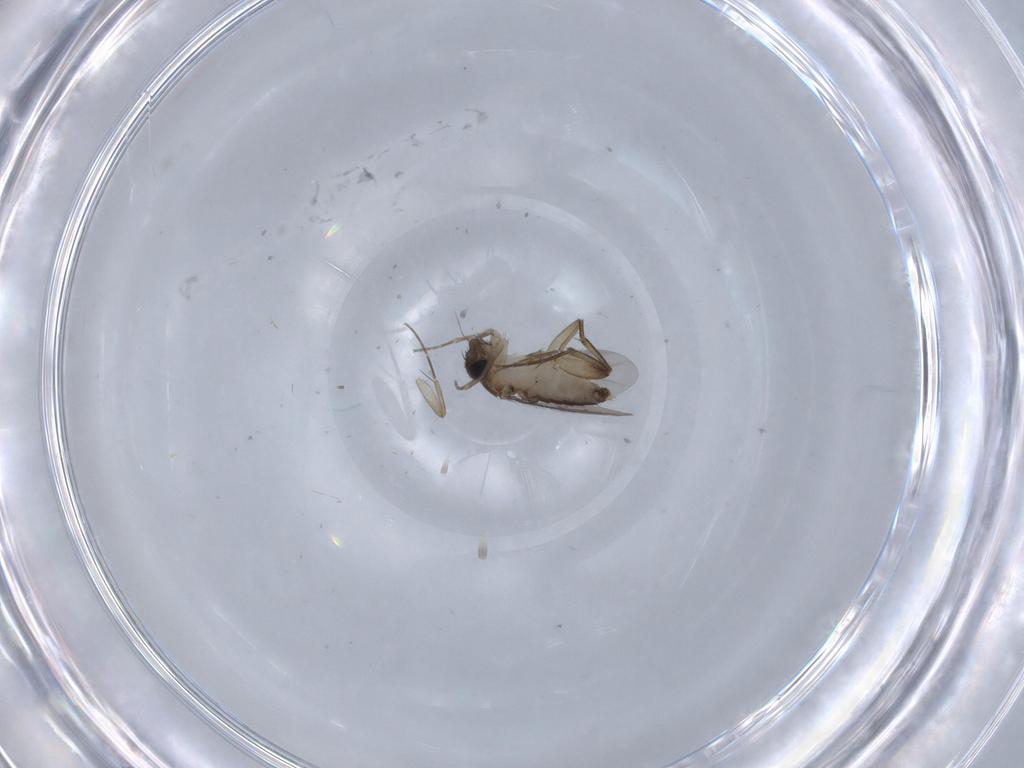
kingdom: Animalia
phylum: Arthropoda
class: Insecta
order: Diptera
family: Phoridae
